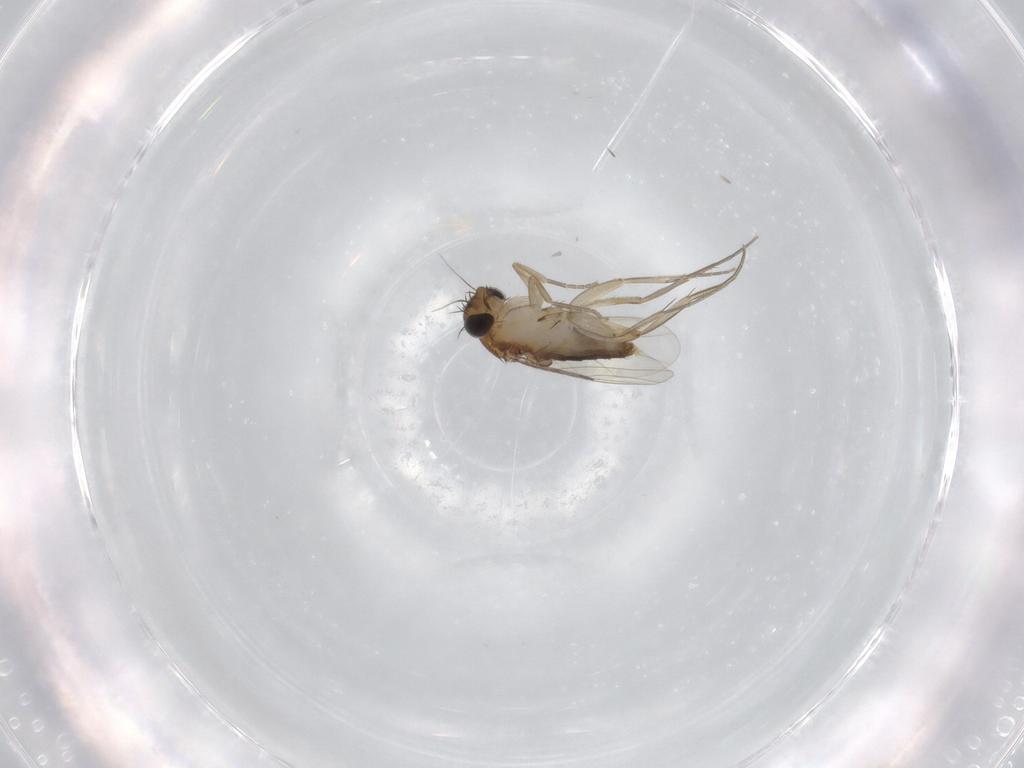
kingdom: Animalia
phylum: Arthropoda
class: Insecta
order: Diptera
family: Phoridae
